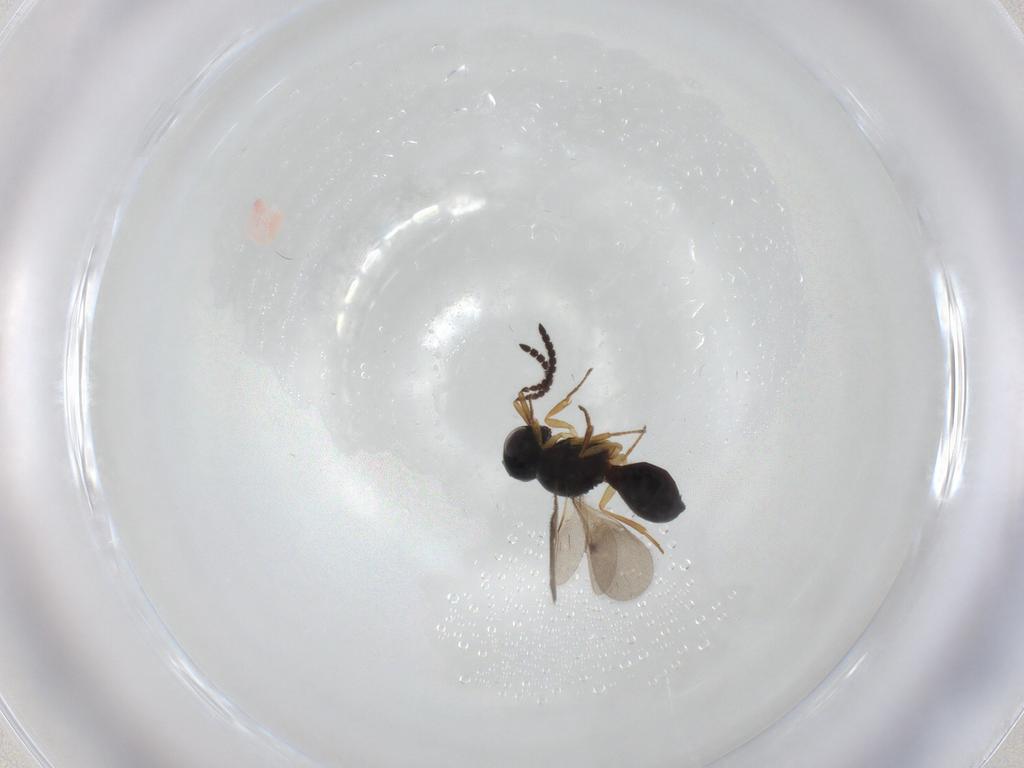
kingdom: Animalia
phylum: Arthropoda
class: Insecta
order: Hymenoptera
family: Scelionidae
